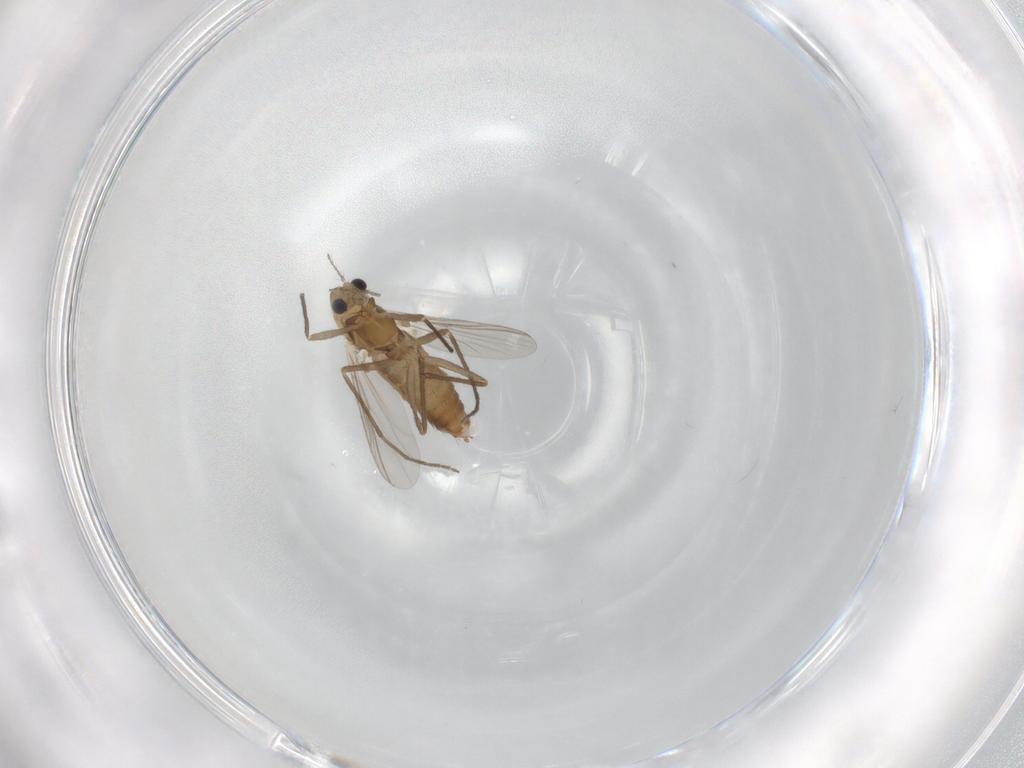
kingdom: Animalia
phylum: Arthropoda
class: Insecta
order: Diptera
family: Chironomidae
